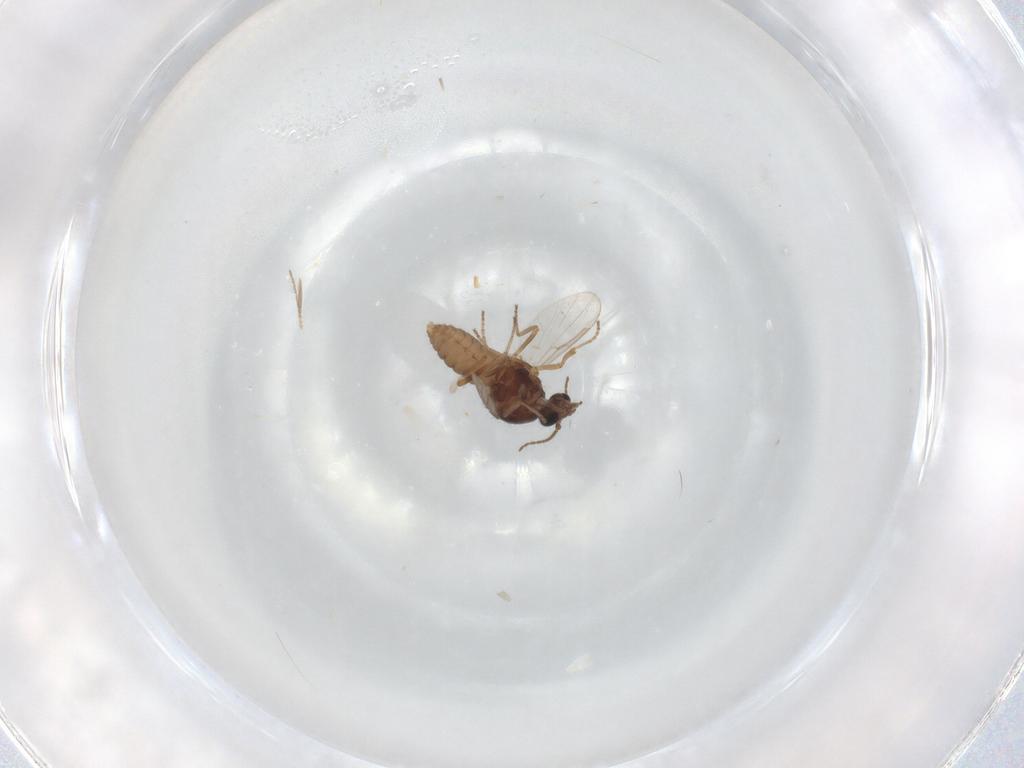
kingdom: Animalia
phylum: Arthropoda
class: Insecta
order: Diptera
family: Ceratopogonidae
